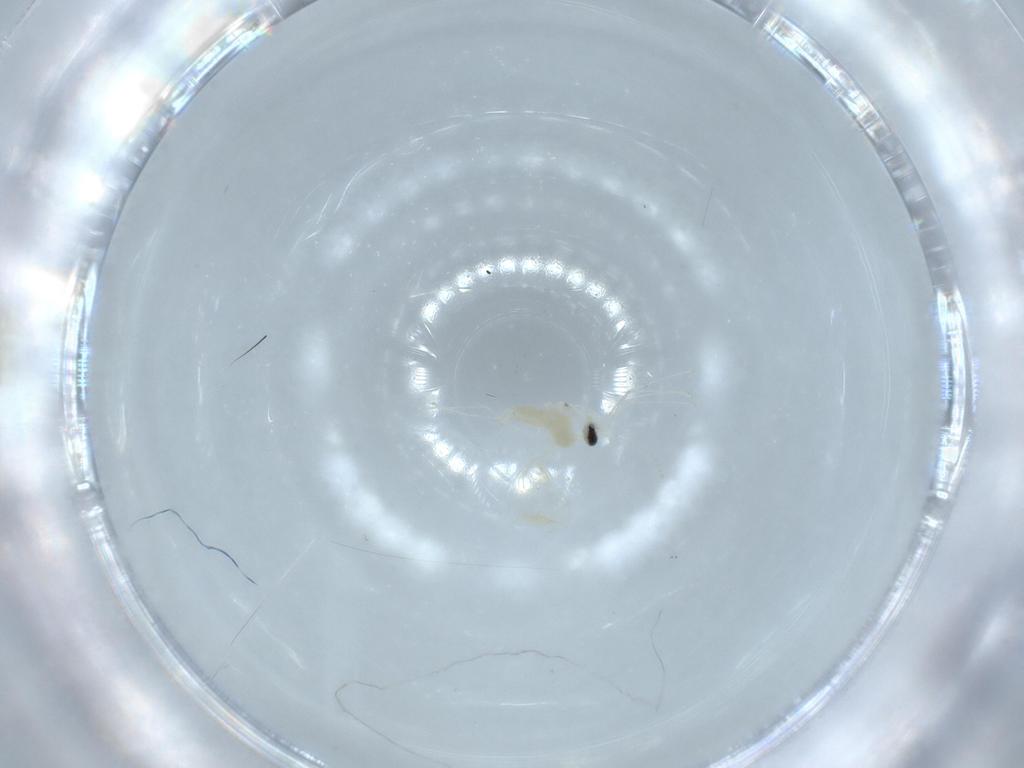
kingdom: Animalia
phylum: Arthropoda
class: Insecta
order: Diptera
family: Cecidomyiidae
